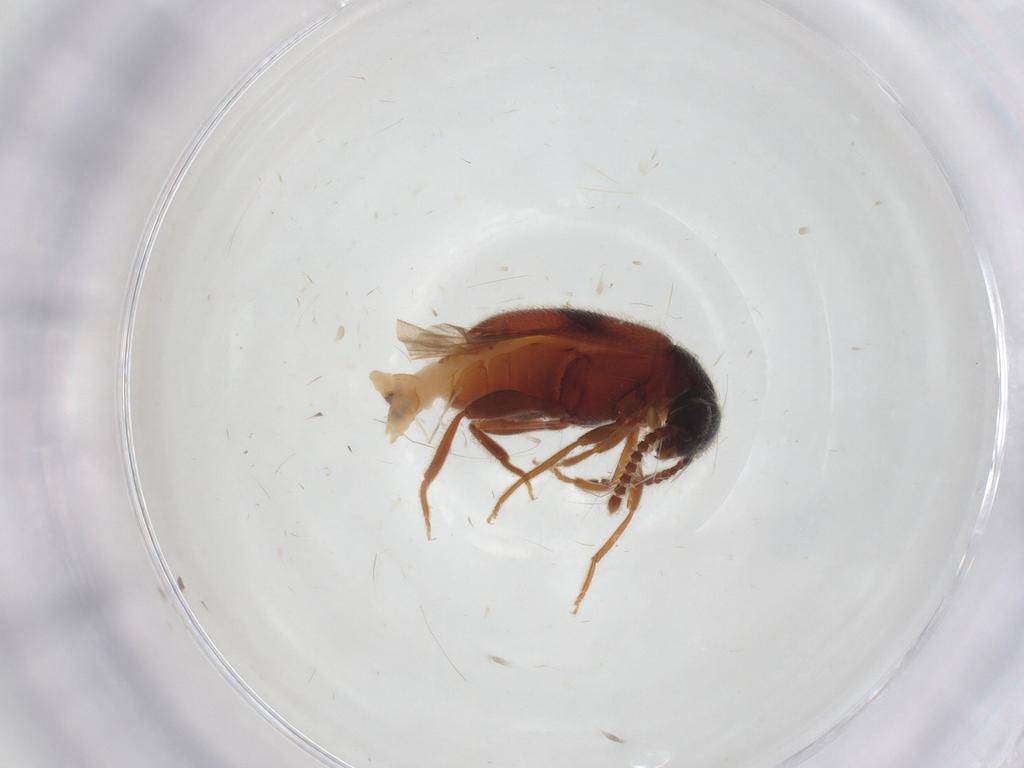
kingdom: Animalia
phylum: Arthropoda
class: Insecta
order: Coleoptera
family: Aderidae
